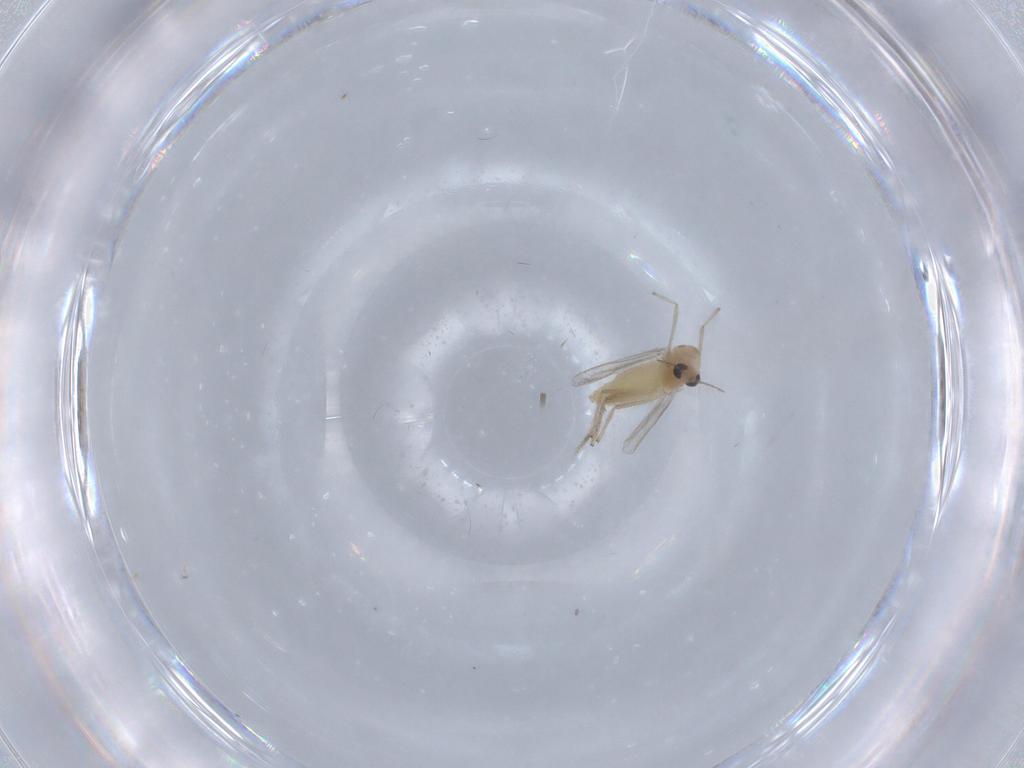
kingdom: Animalia
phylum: Arthropoda
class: Insecta
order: Diptera
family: Chironomidae
